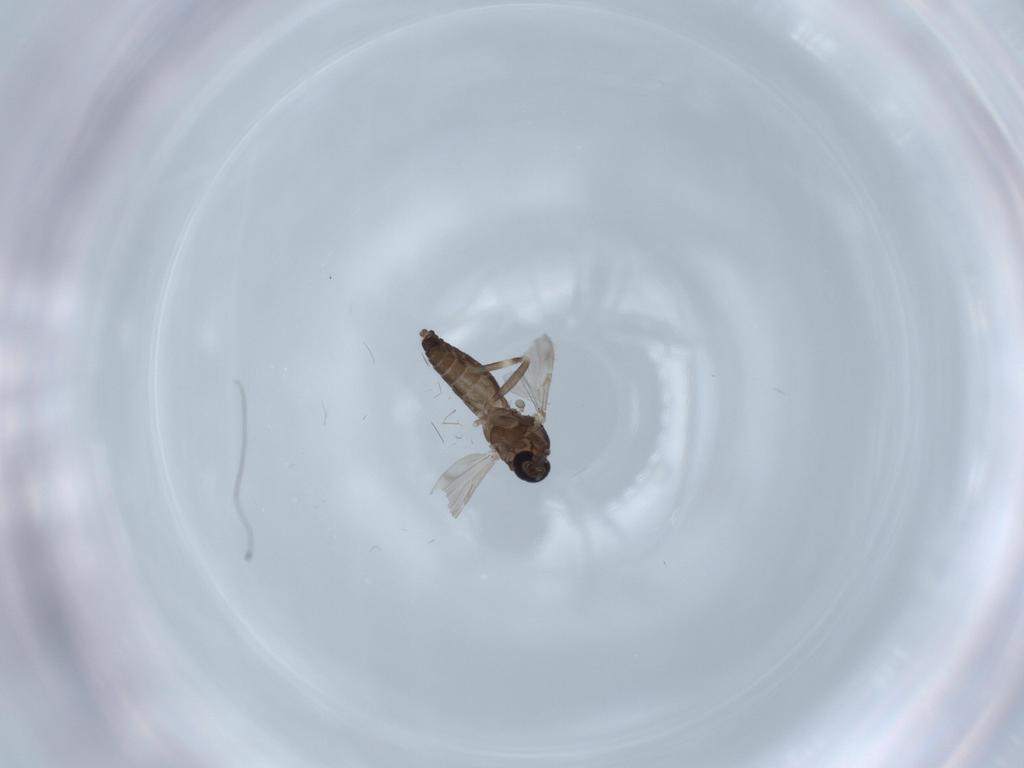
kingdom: Animalia
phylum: Arthropoda
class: Insecta
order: Diptera
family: Ceratopogonidae
